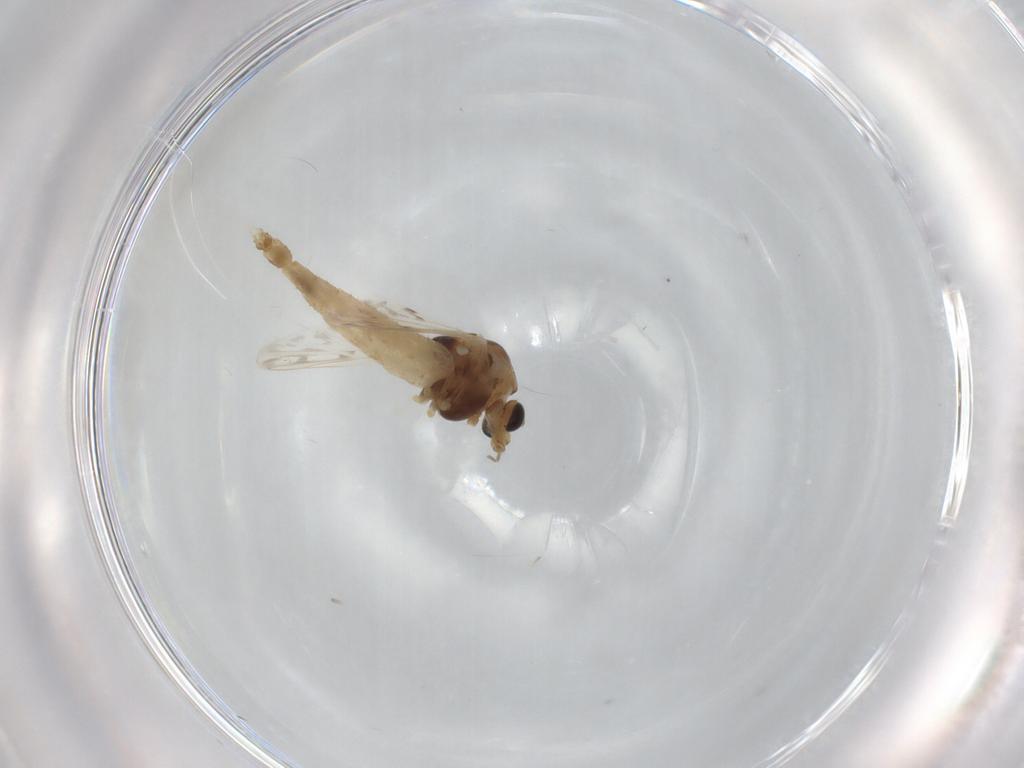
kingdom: Animalia
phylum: Arthropoda
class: Insecta
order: Diptera
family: Chironomidae
